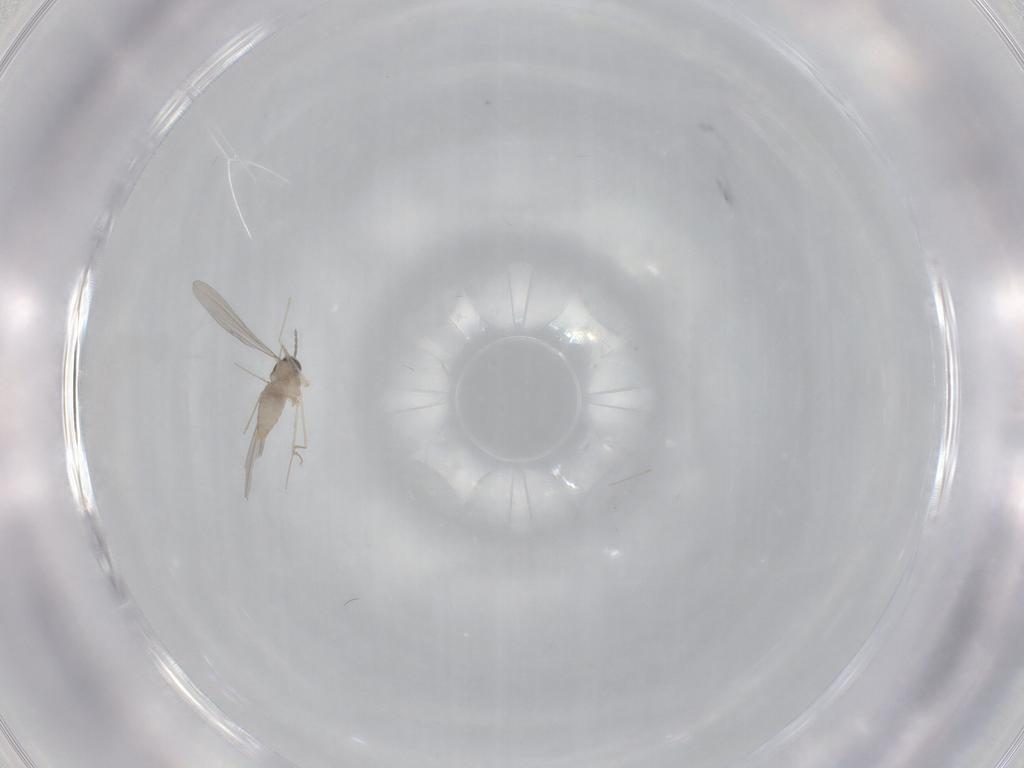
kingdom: Animalia
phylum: Arthropoda
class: Insecta
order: Diptera
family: Cecidomyiidae
